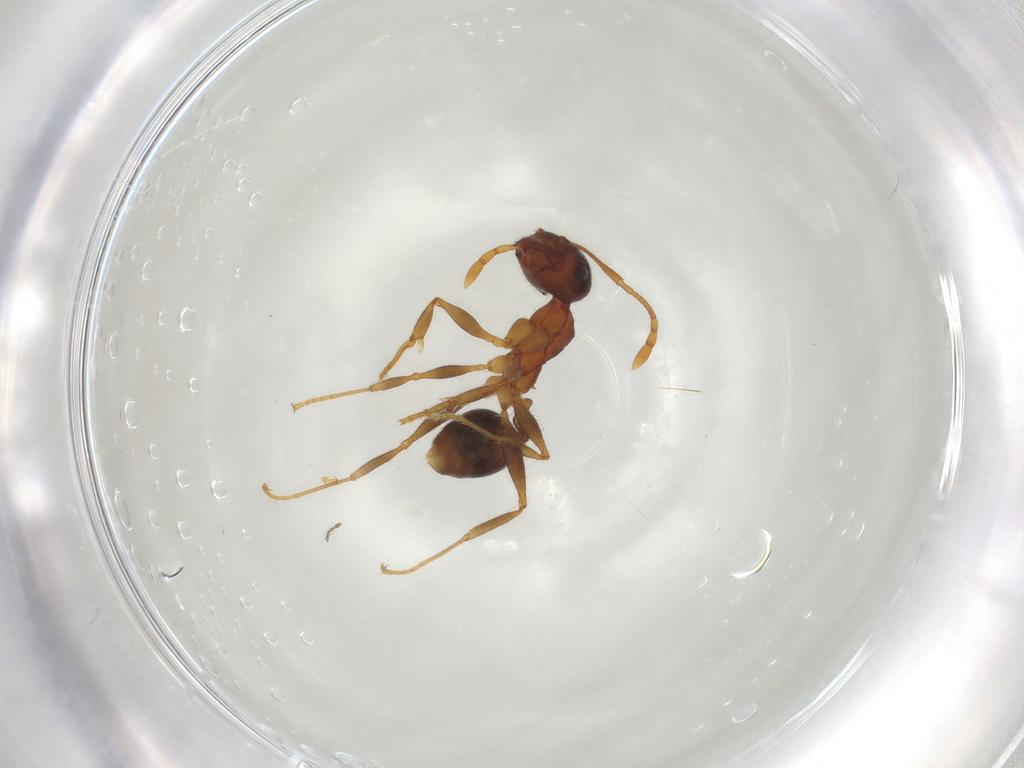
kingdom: Animalia
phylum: Arthropoda
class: Insecta
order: Hymenoptera
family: Formicidae
